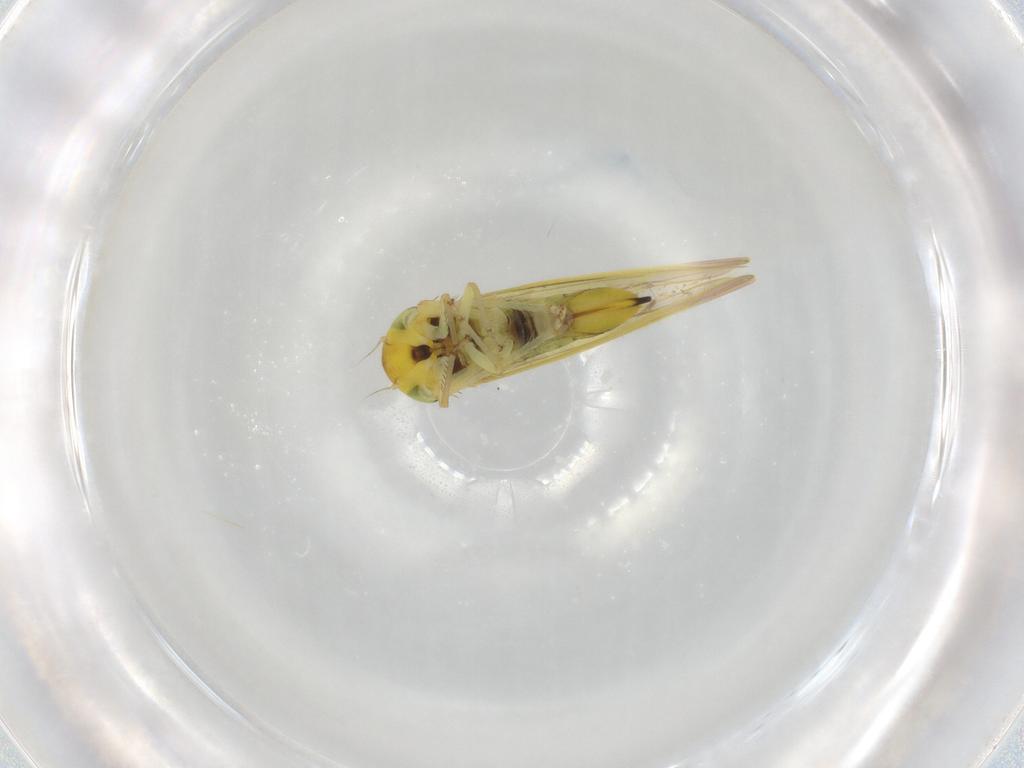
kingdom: Animalia
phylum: Arthropoda
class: Insecta
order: Hemiptera
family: Cicadellidae
